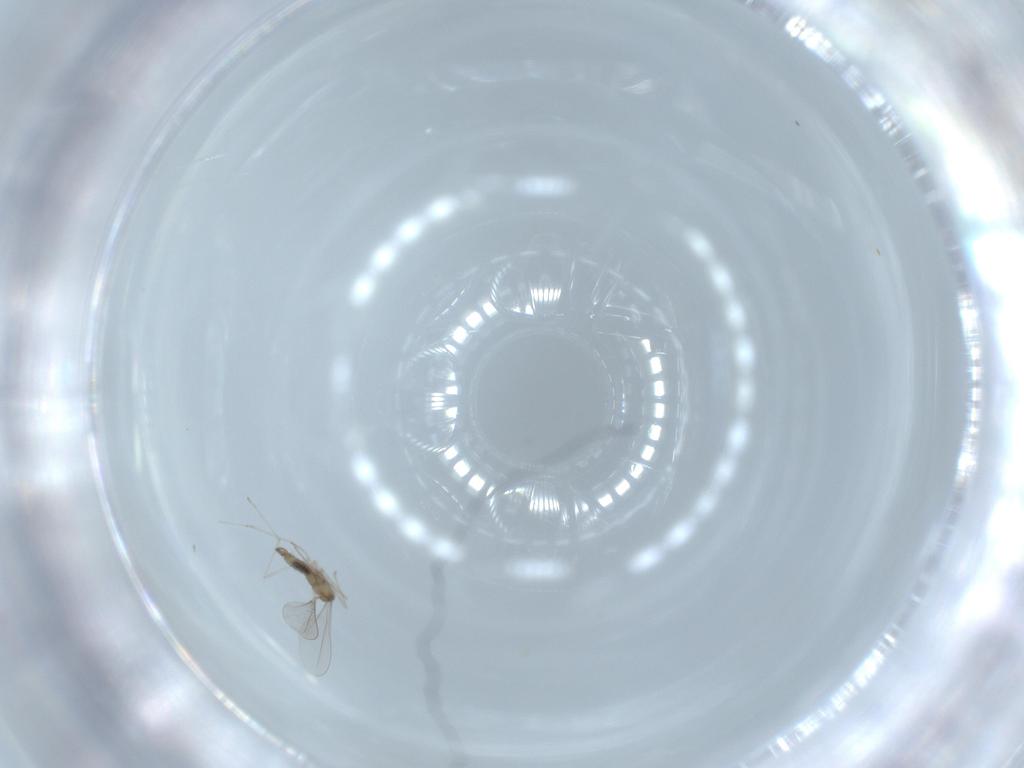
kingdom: Animalia
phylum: Arthropoda
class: Insecta
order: Diptera
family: Cecidomyiidae
